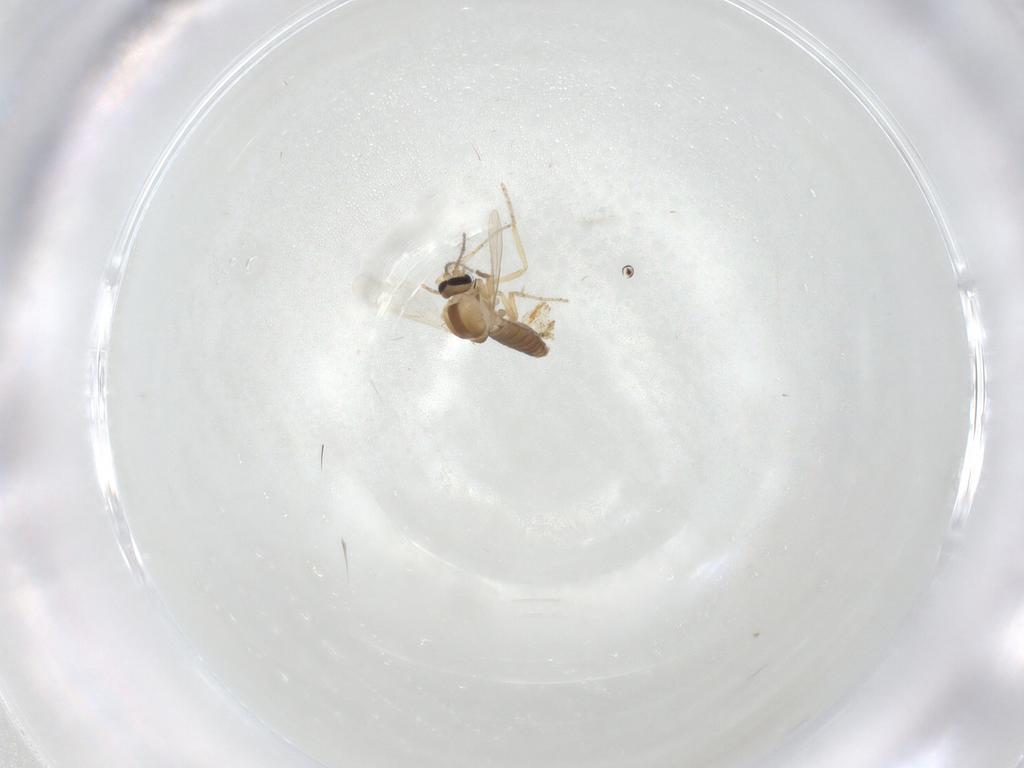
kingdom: Animalia
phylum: Arthropoda
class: Insecta
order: Diptera
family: Ceratopogonidae
